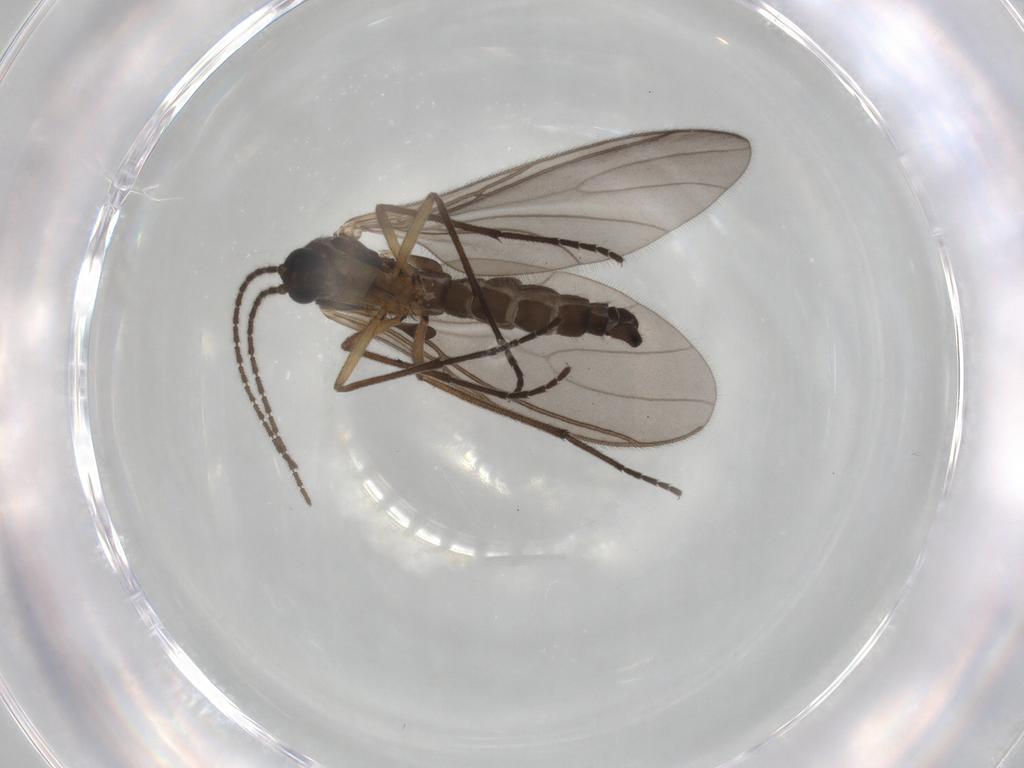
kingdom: Animalia
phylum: Arthropoda
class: Insecta
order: Diptera
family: Sciaridae
